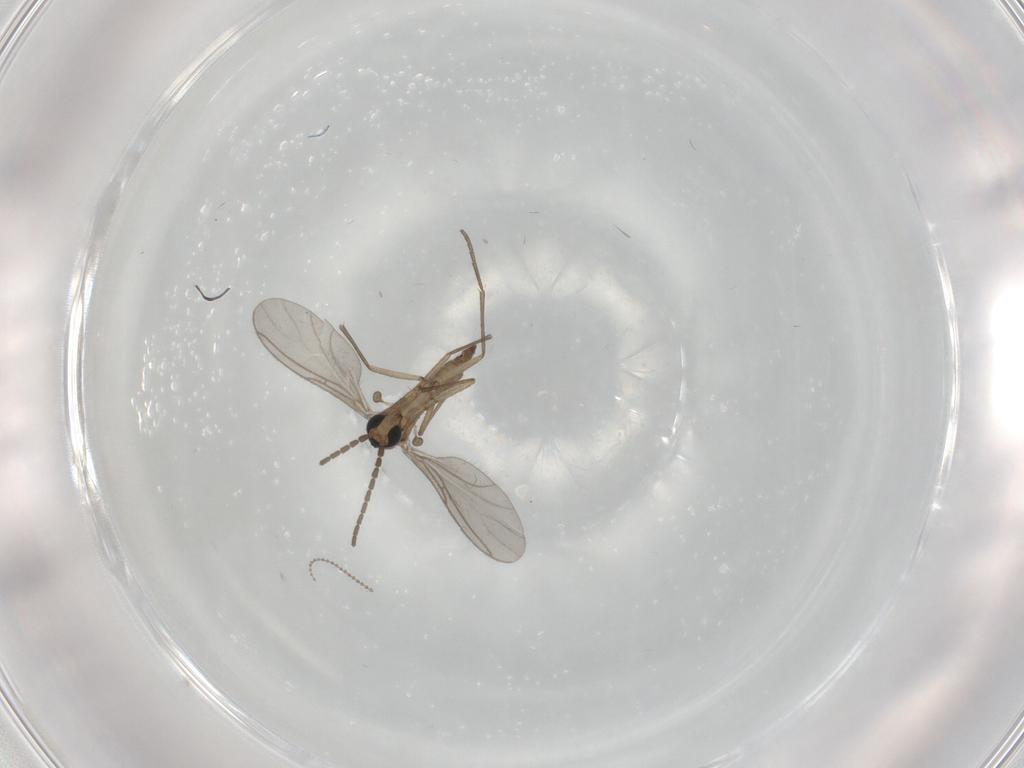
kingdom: Animalia
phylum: Arthropoda
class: Insecta
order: Diptera
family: Sciaridae
